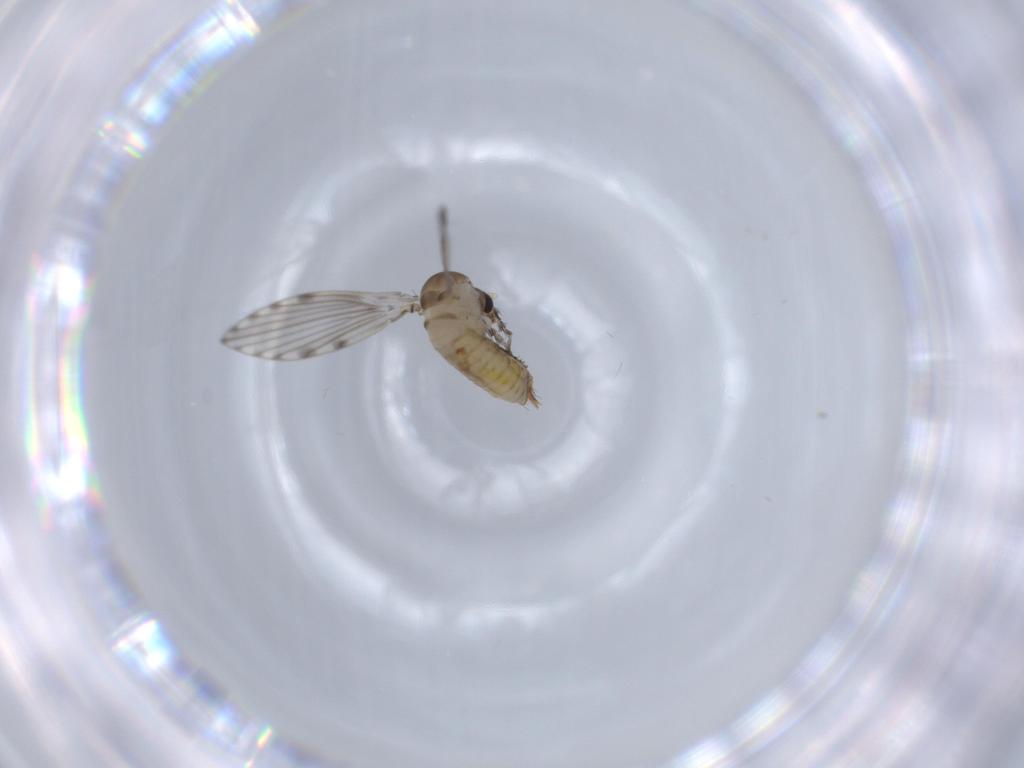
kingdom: Animalia
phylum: Arthropoda
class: Insecta
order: Diptera
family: Psychodidae
